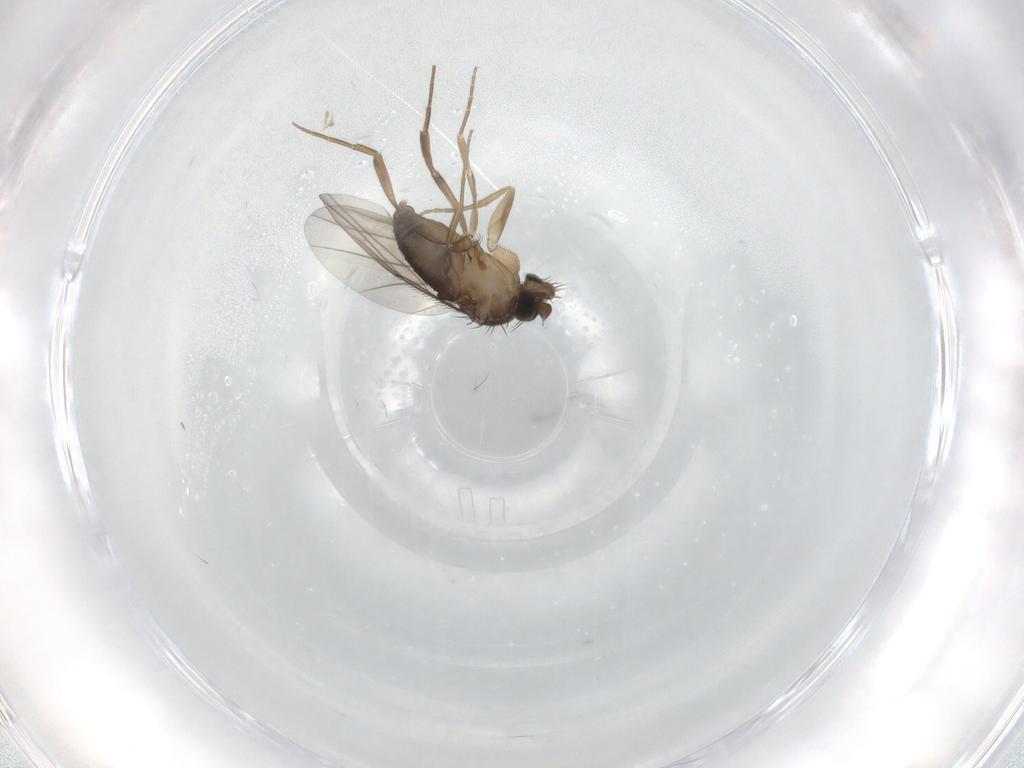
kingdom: Animalia
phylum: Arthropoda
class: Insecta
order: Diptera
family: Phoridae
